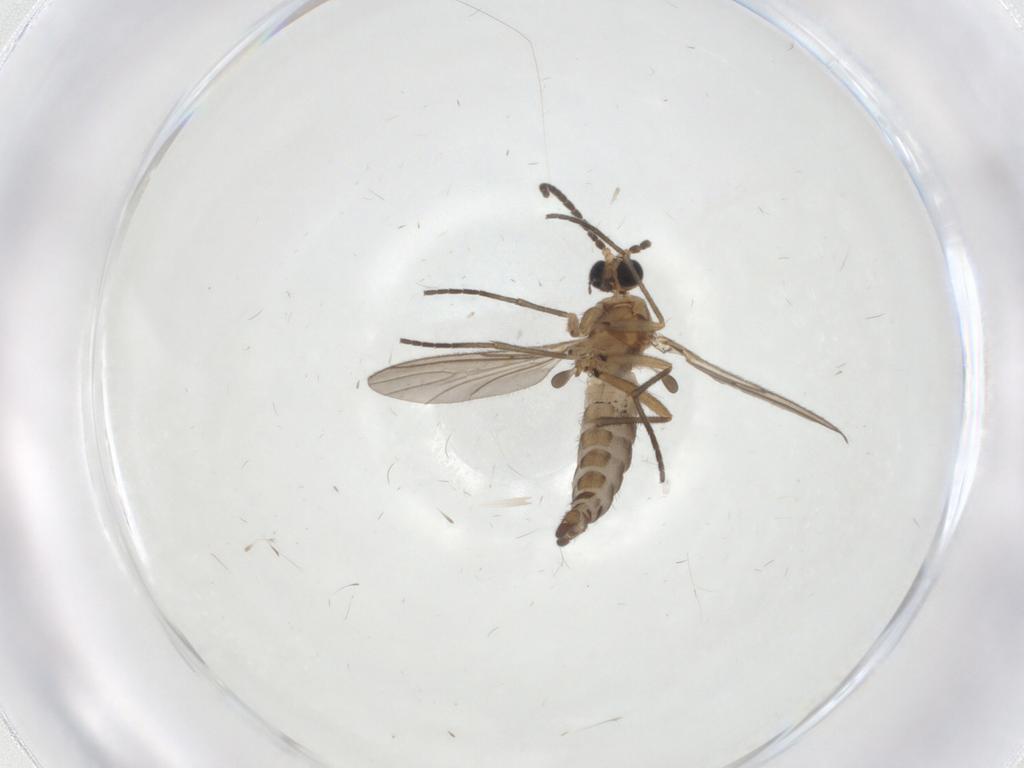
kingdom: Animalia
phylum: Arthropoda
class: Insecta
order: Diptera
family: Sciaridae
